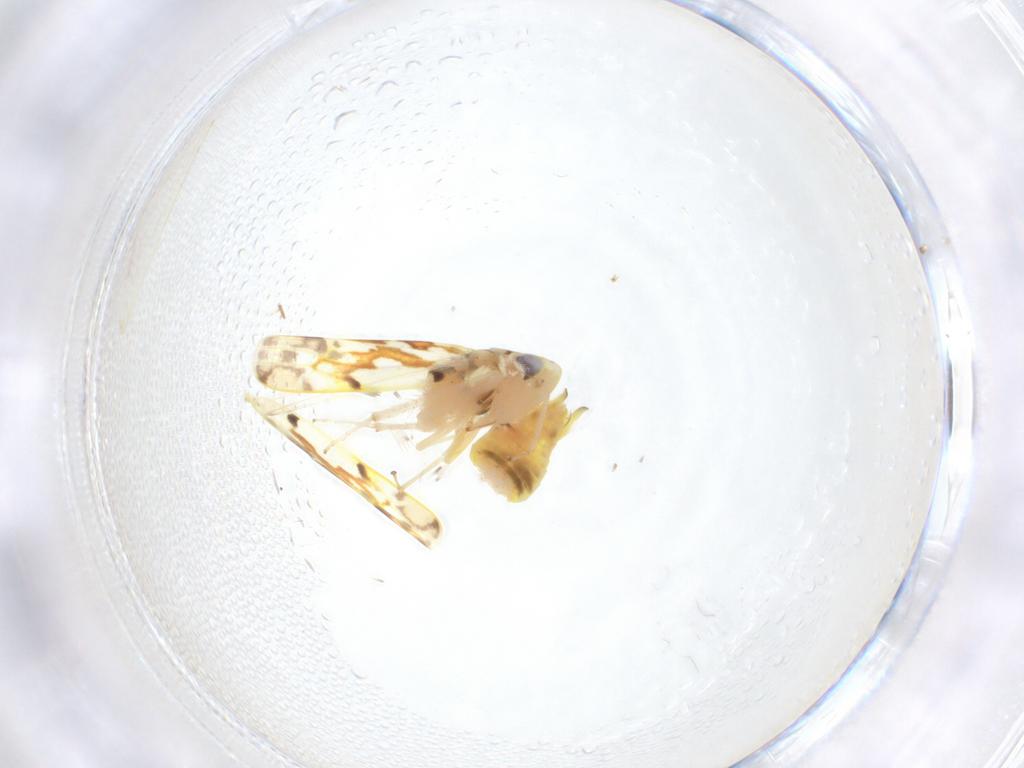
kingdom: Animalia
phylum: Arthropoda
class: Insecta
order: Hemiptera
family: Cicadellidae
